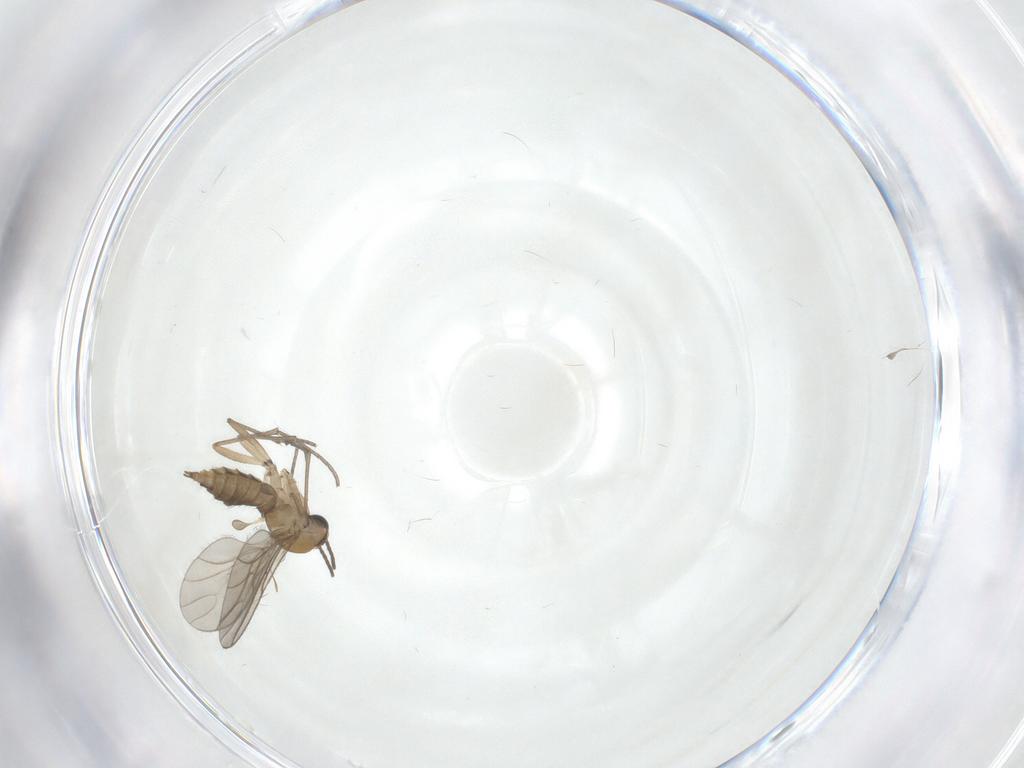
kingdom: Animalia
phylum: Arthropoda
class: Insecta
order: Diptera
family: Sciaridae
